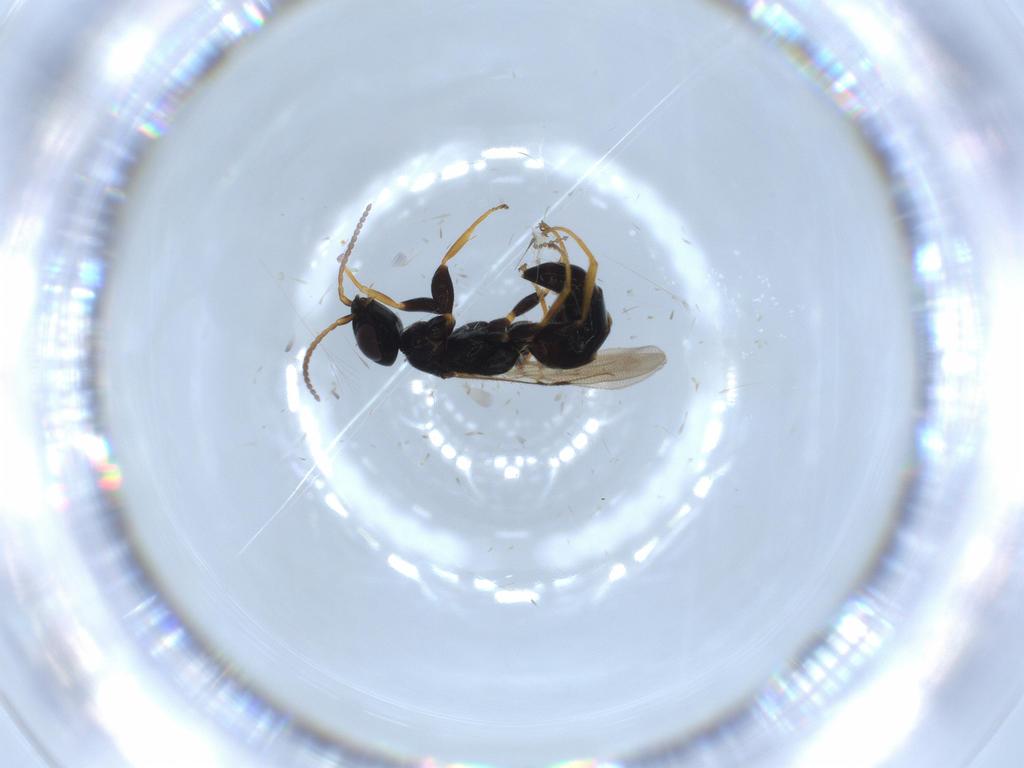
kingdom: Animalia
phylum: Arthropoda
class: Insecta
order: Hymenoptera
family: Bethylidae
